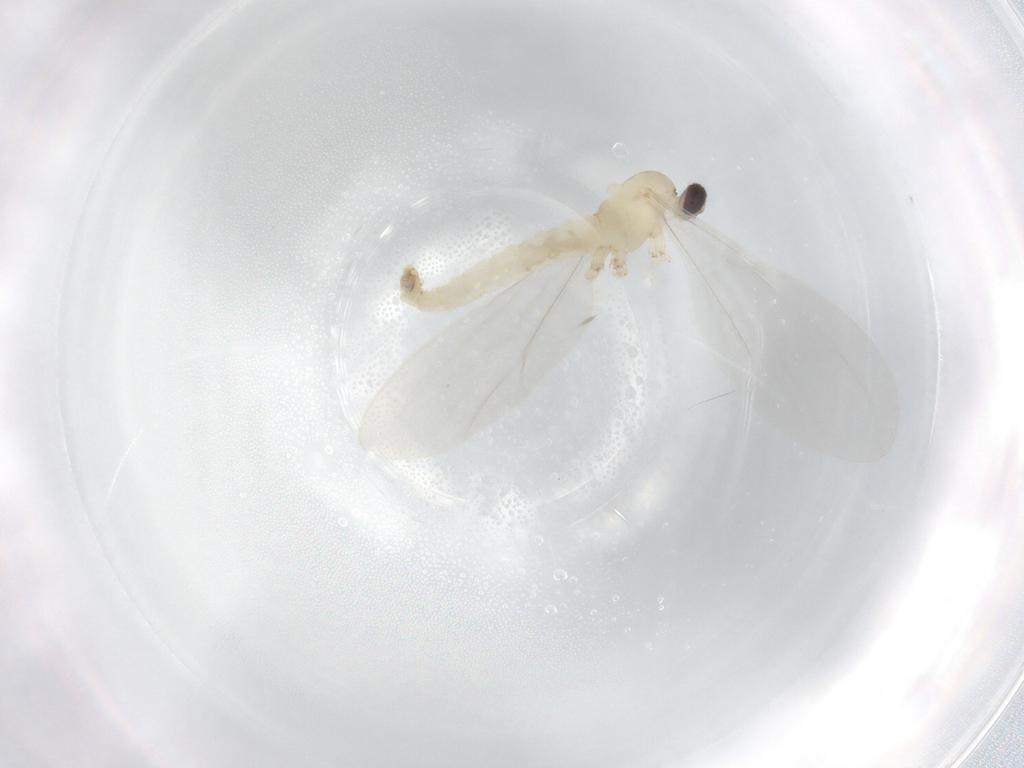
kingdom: Animalia
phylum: Arthropoda
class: Insecta
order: Diptera
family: Cecidomyiidae
